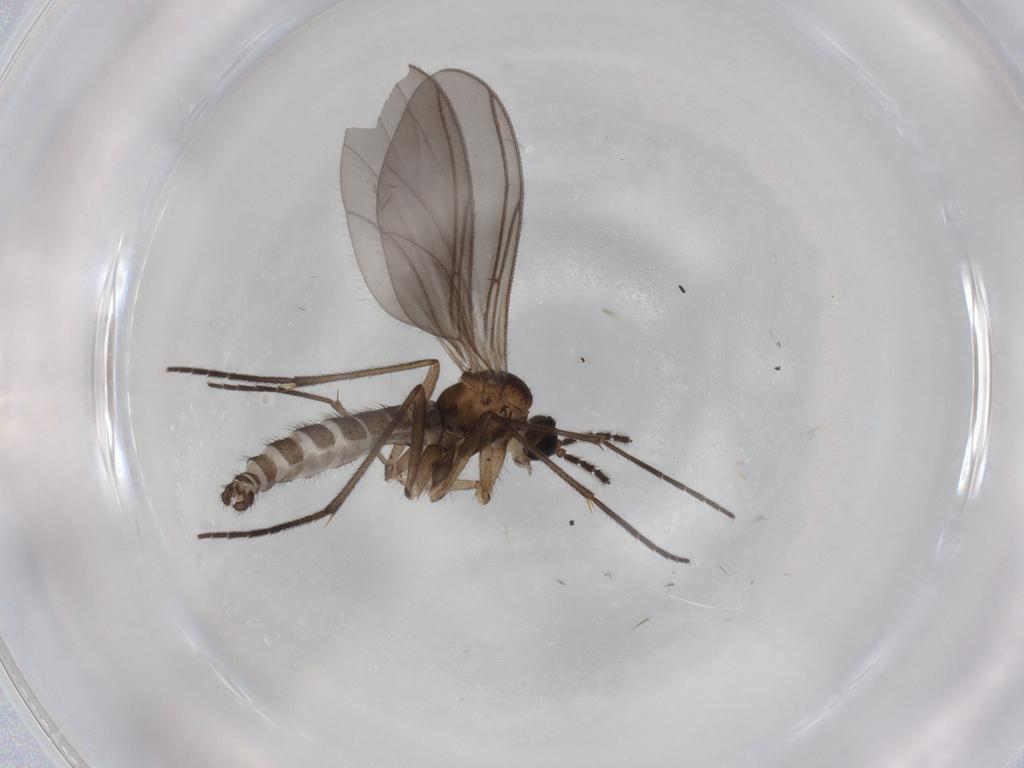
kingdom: Animalia
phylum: Arthropoda
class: Insecta
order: Diptera
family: Sciaridae
